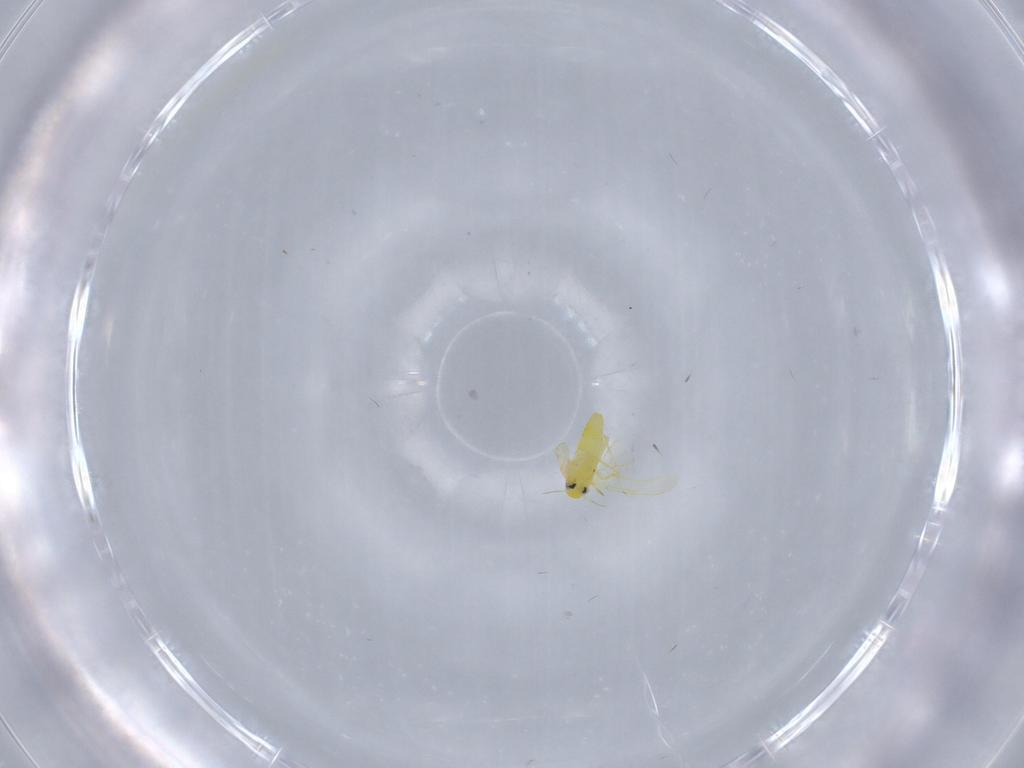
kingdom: Animalia
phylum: Arthropoda
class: Insecta
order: Hemiptera
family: Aleyrodidae
